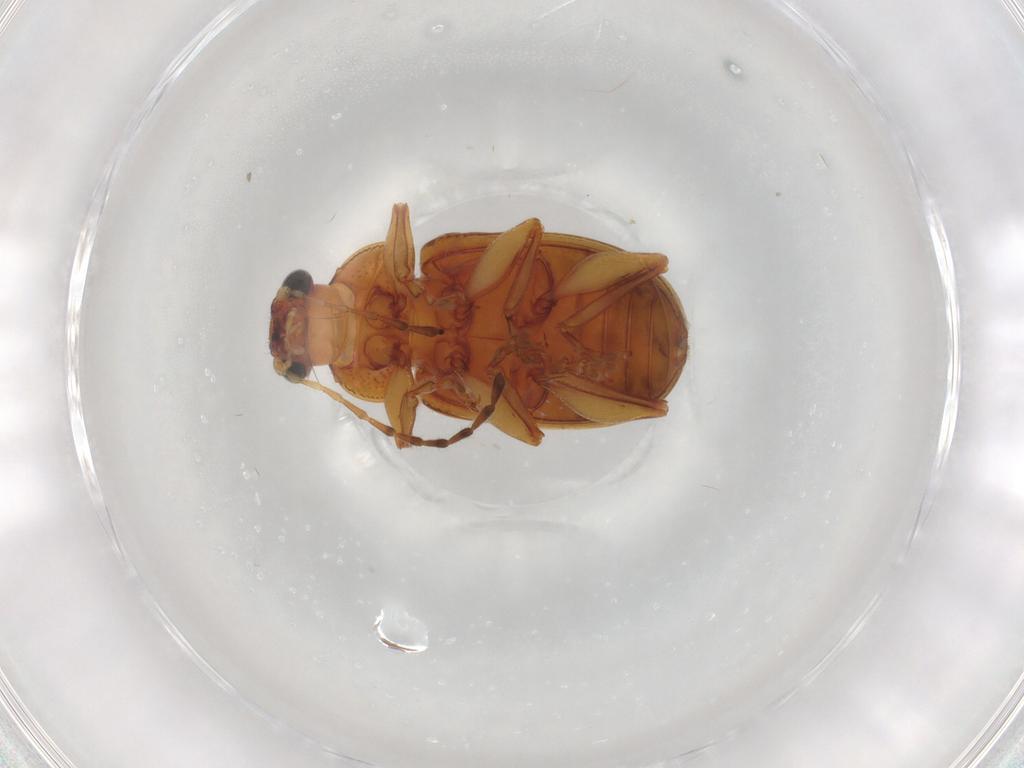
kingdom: Animalia
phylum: Arthropoda
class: Insecta
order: Coleoptera
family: Chrysomelidae
